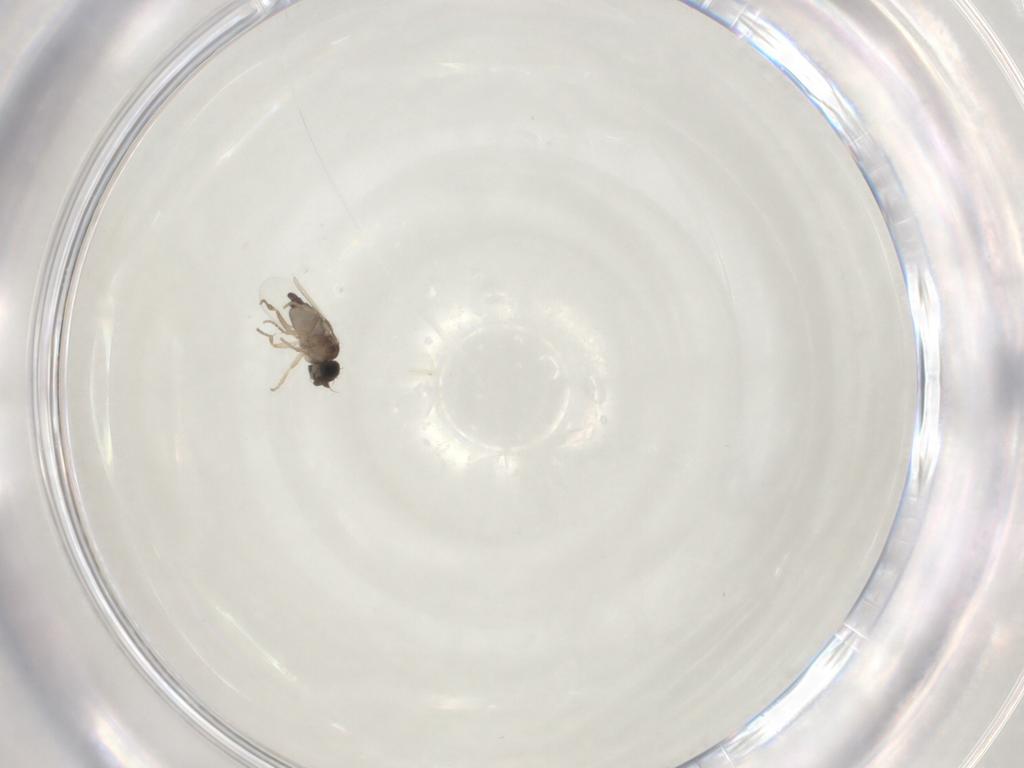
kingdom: Animalia
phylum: Arthropoda
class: Insecta
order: Diptera
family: Phoridae
